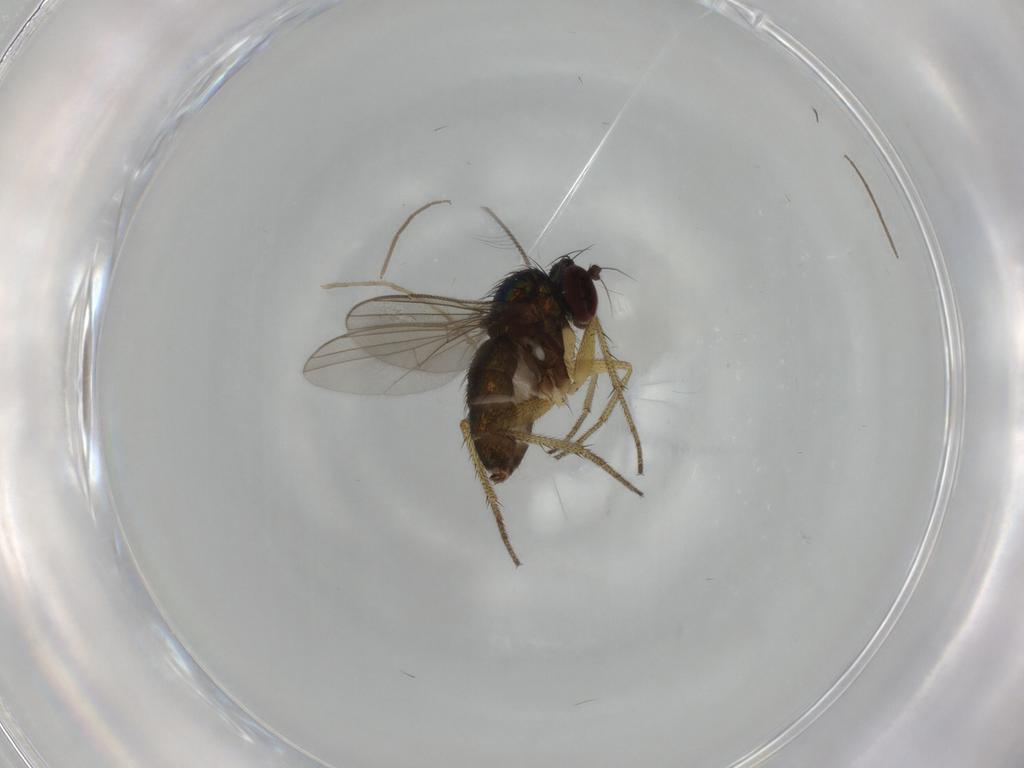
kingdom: Animalia
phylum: Arthropoda
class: Insecta
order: Diptera
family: Dolichopodidae
